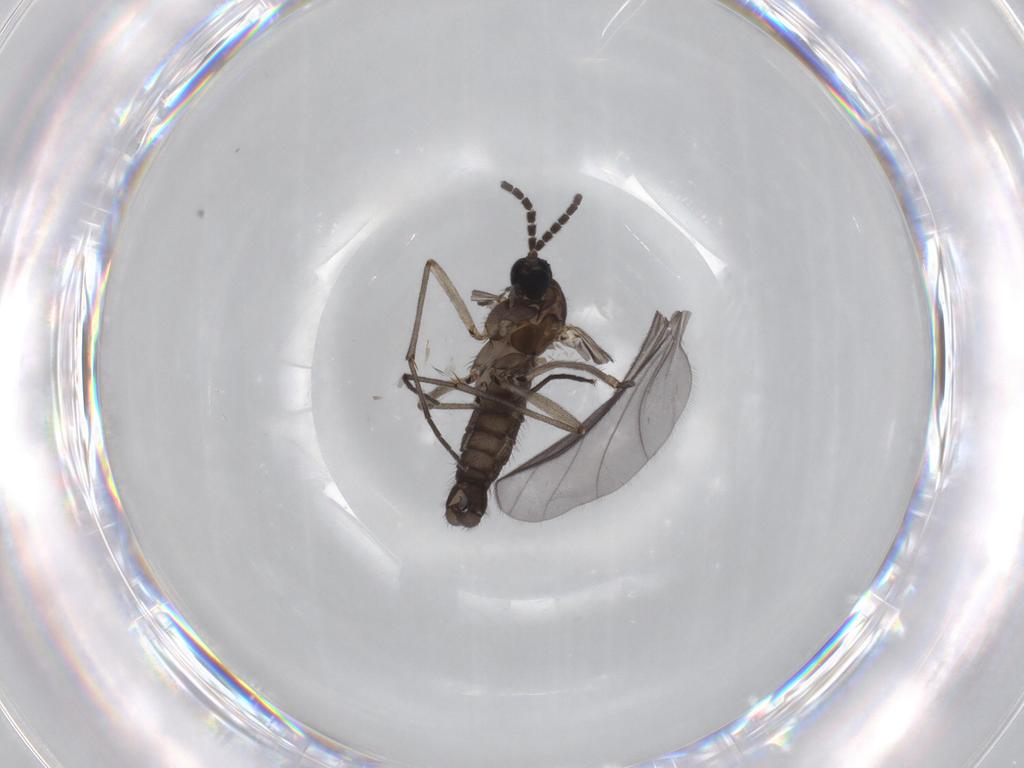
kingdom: Animalia
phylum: Arthropoda
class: Insecta
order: Diptera
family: Sciaridae
